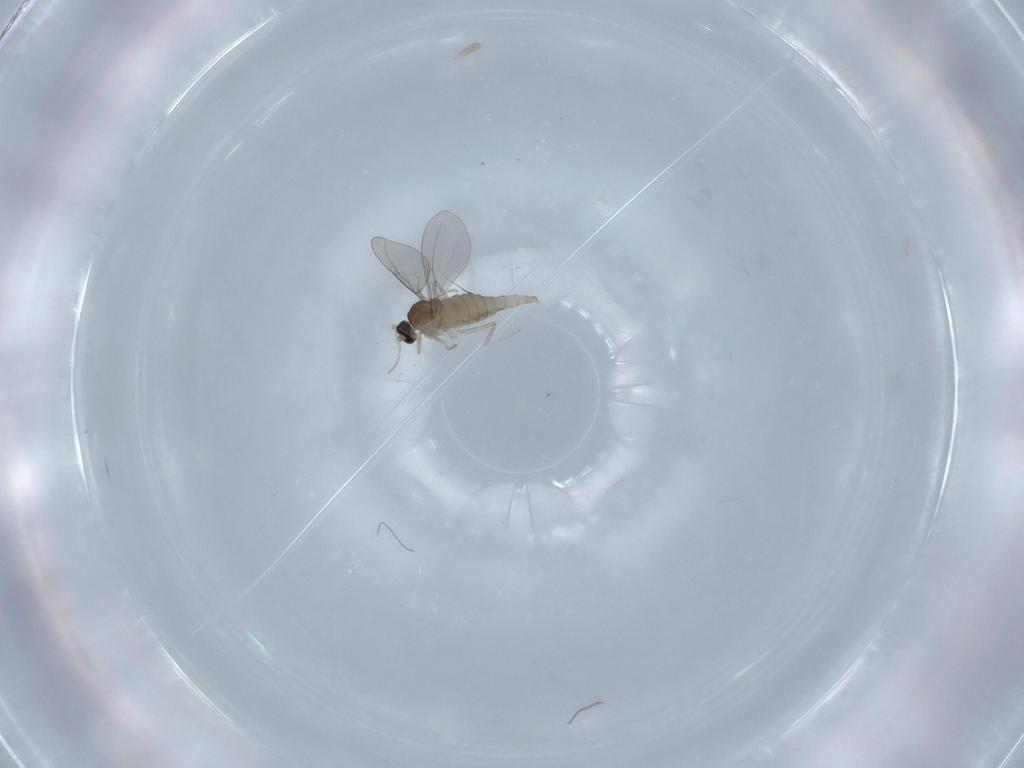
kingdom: Animalia
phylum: Arthropoda
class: Insecta
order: Diptera
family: Cecidomyiidae
